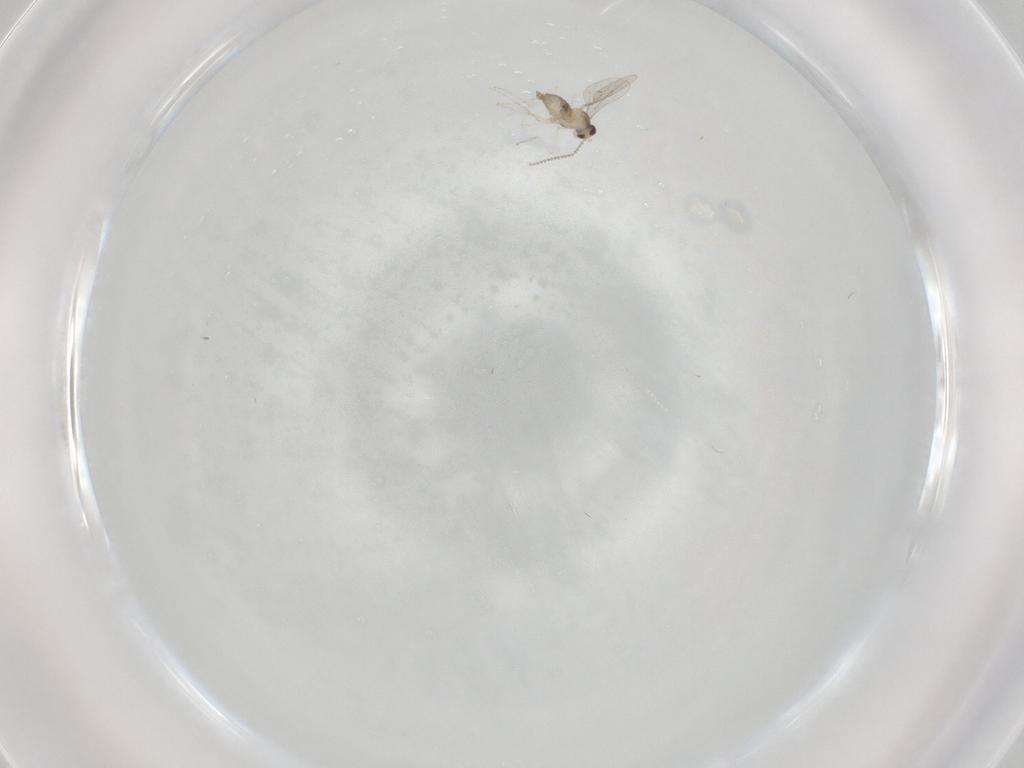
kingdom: Animalia
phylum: Arthropoda
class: Insecta
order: Diptera
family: Cecidomyiidae
